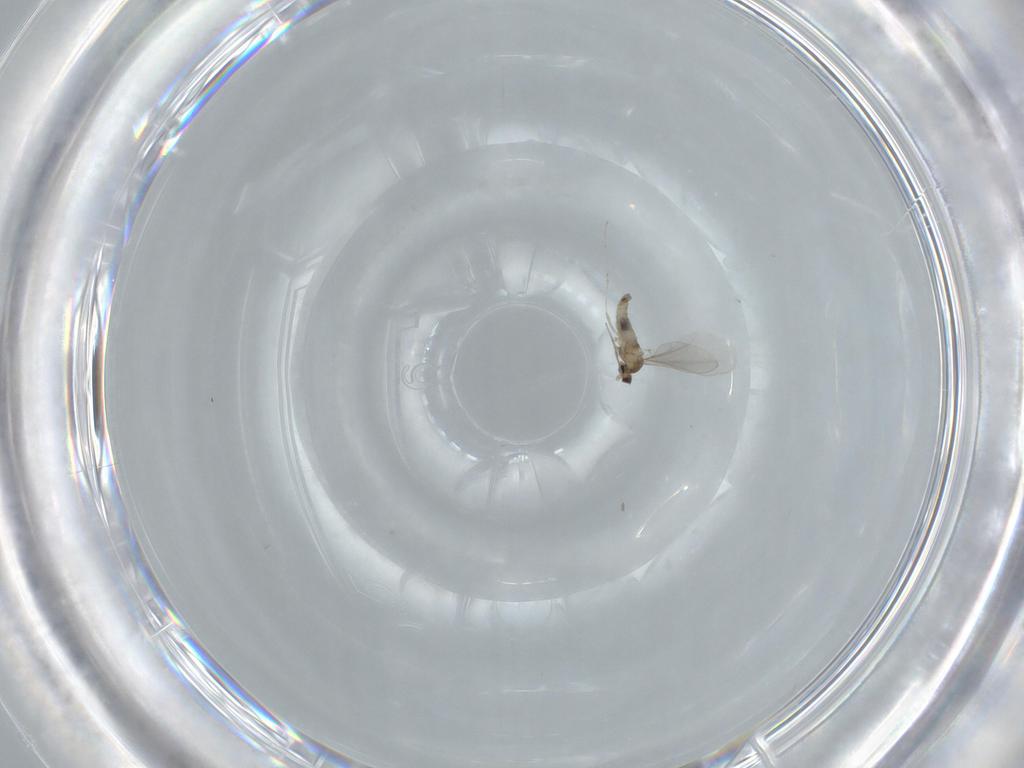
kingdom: Animalia
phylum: Arthropoda
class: Insecta
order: Diptera
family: Cecidomyiidae
